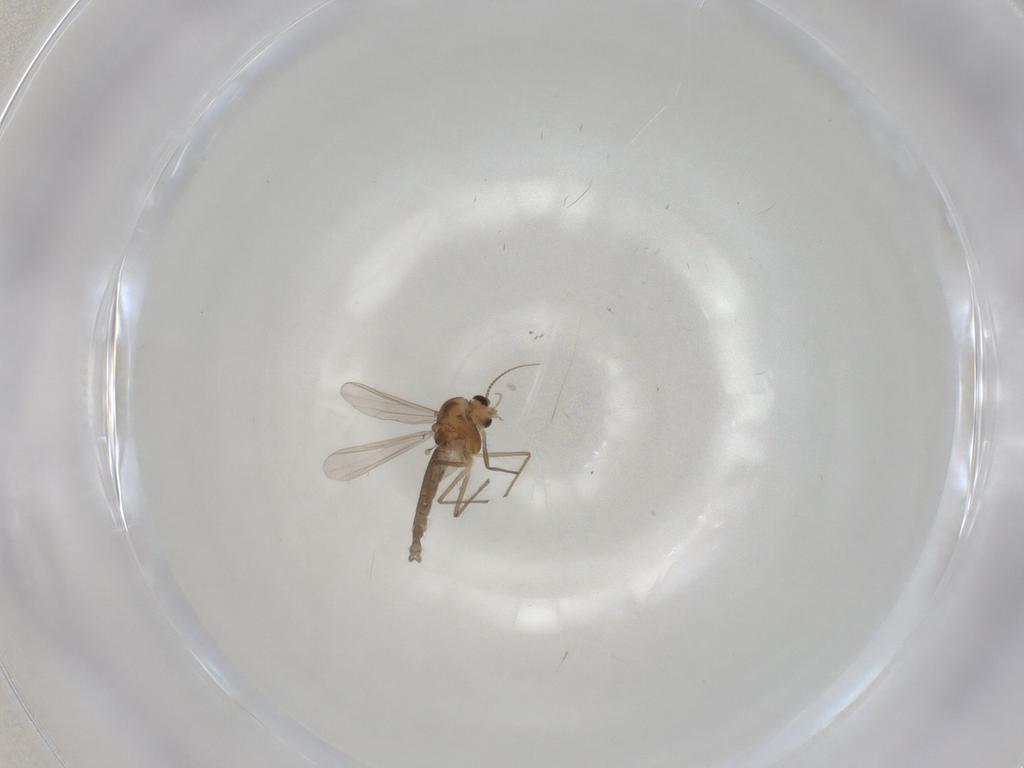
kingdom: Animalia
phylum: Arthropoda
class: Insecta
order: Diptera
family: Chironomidae
